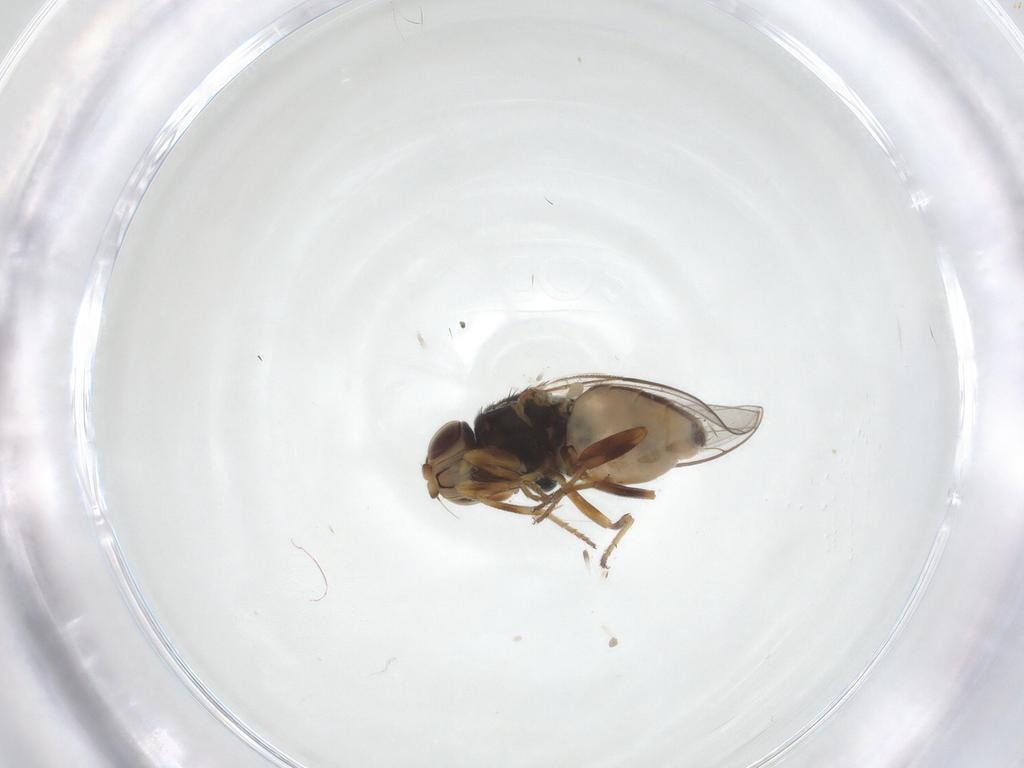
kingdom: Animalia
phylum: Arthropoda
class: Insecta
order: Diptera
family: Chloropidae
